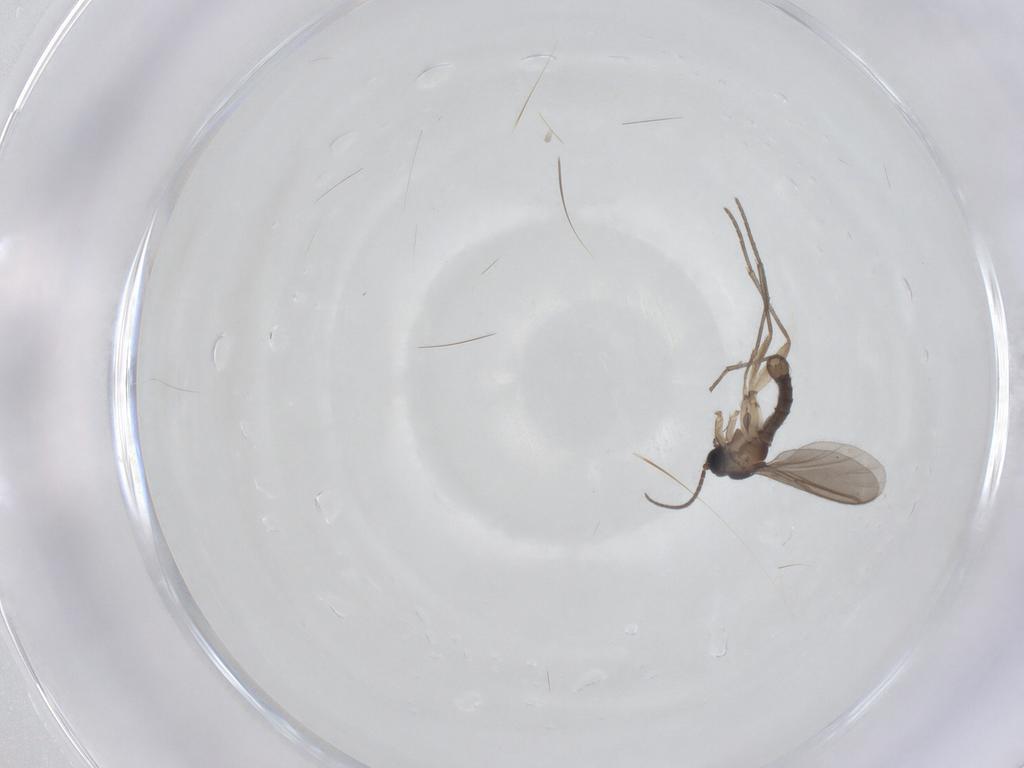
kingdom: Animalia
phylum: Arthropoda
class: Insecta
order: Diptera
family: Sciaridae
